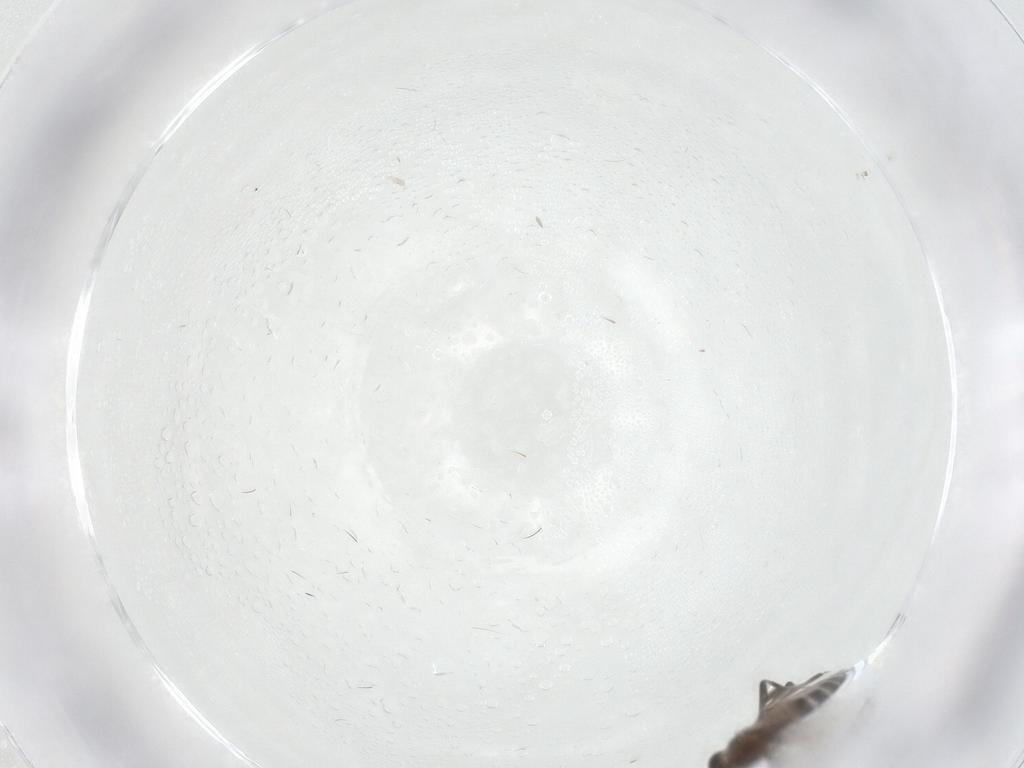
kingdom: Animalia
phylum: Arthropoda
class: Insecta
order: Diptera
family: Phoridae
